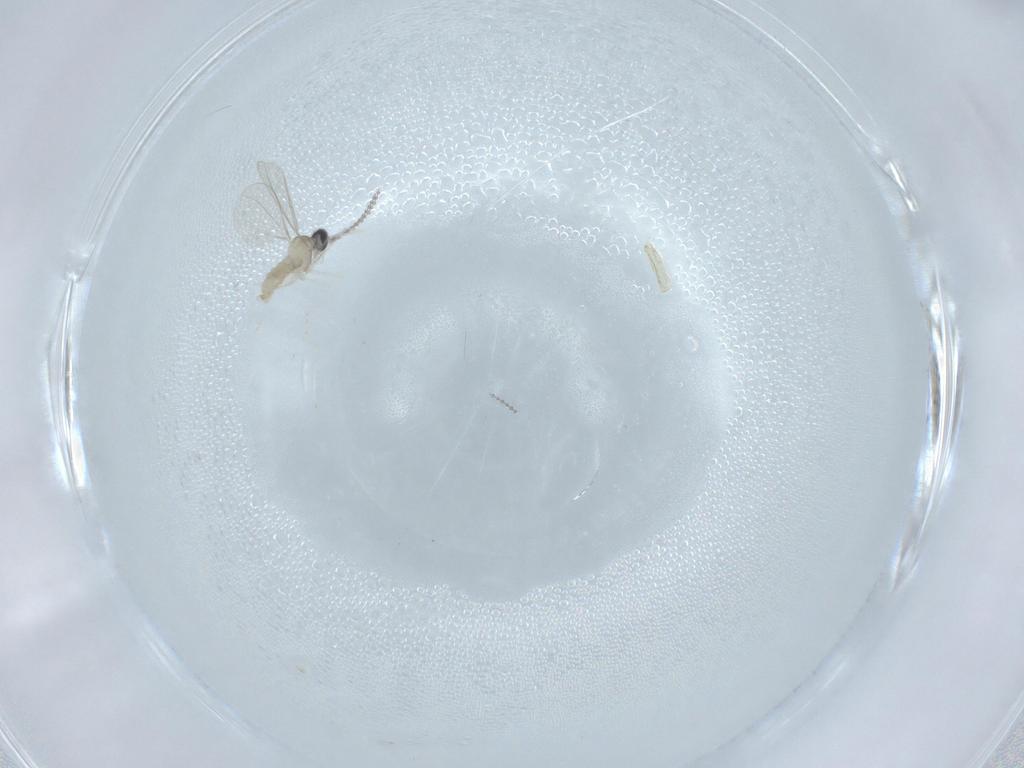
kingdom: Animalia
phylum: Arthropoda
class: Insecta
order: Diptera
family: Cecidomyiidae
